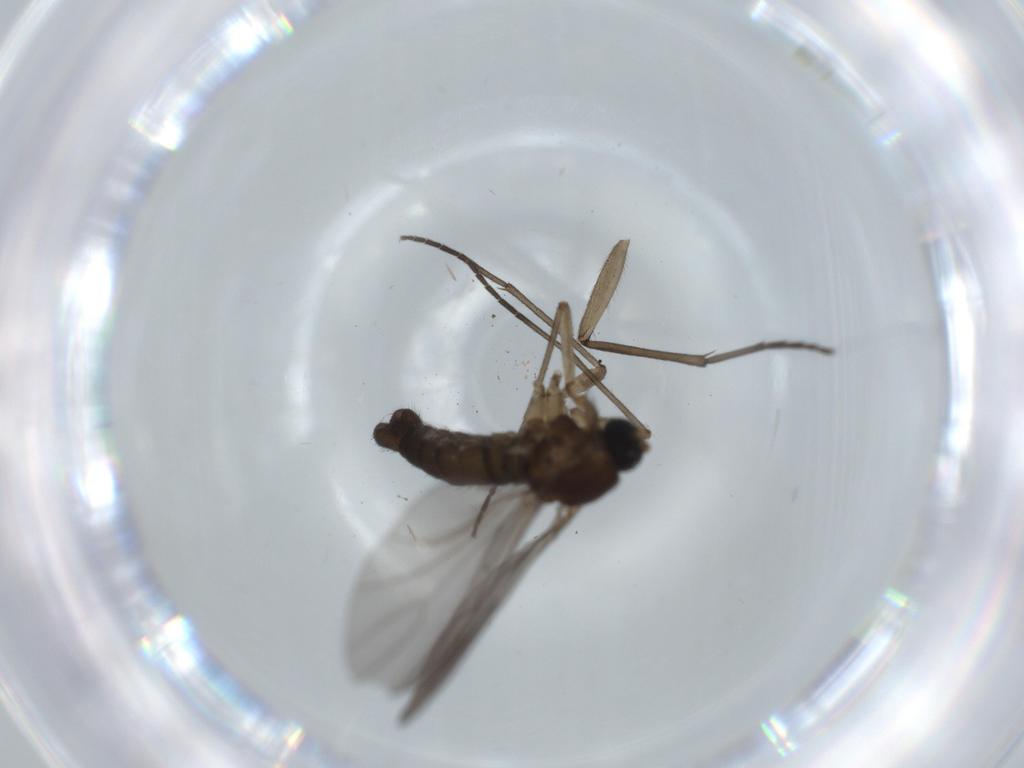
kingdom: Animalia
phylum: Arthropoda
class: Insecta
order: Diptera
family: Sciaridae
